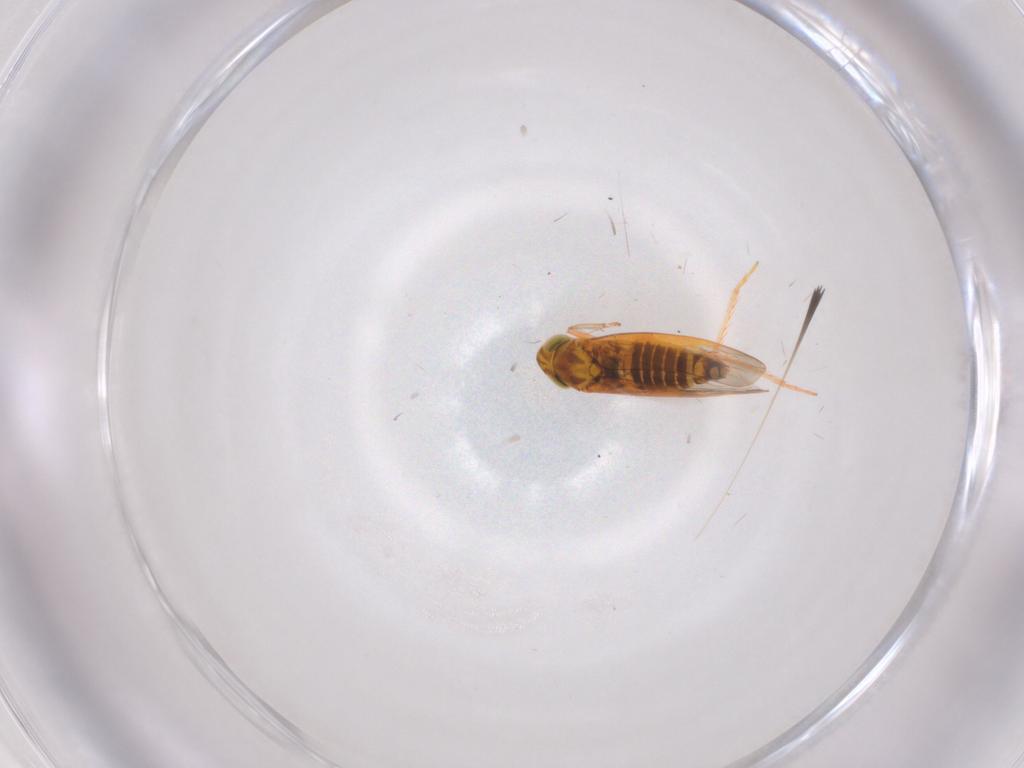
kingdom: Animalia
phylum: Arthropoda
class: Insecta
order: Hemiptera
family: Cicadellidae
